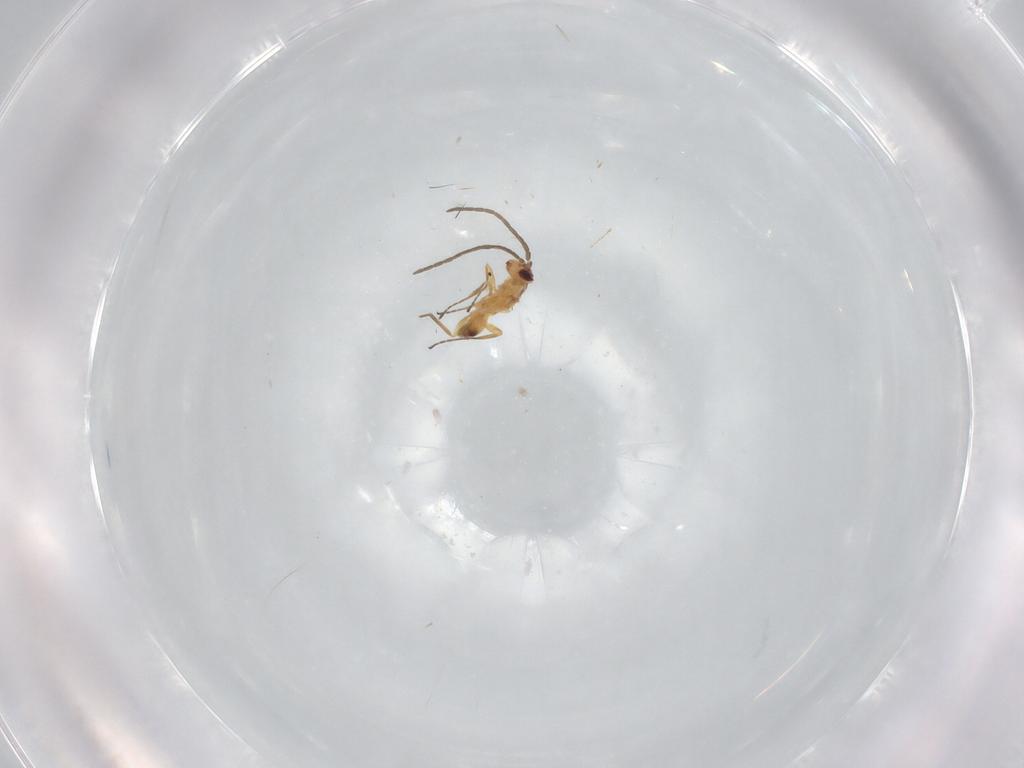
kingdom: Animalia
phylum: Arthropoda
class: Insecta
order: Hymenoptera
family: Mymaridae
